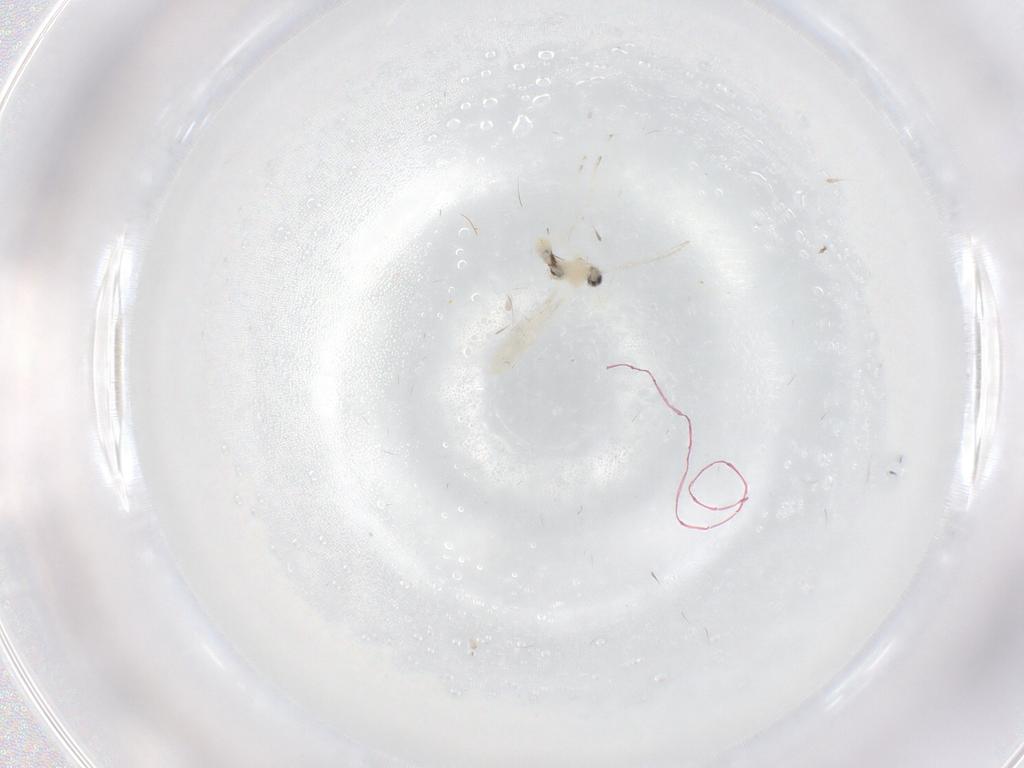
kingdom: Animalia
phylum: Arthropoda
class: Insecta
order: Diptera
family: Cecidomyiidae
